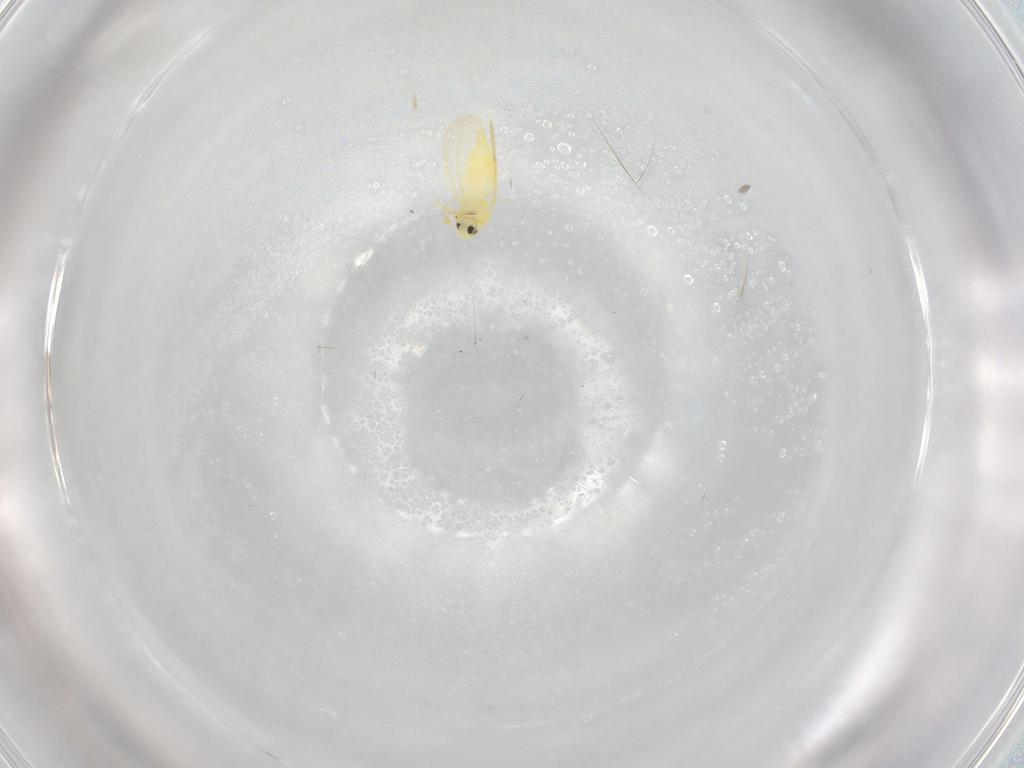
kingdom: Animalia
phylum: Arthropoda
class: Insecta
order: Hemiptera
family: Aleyrodidae
